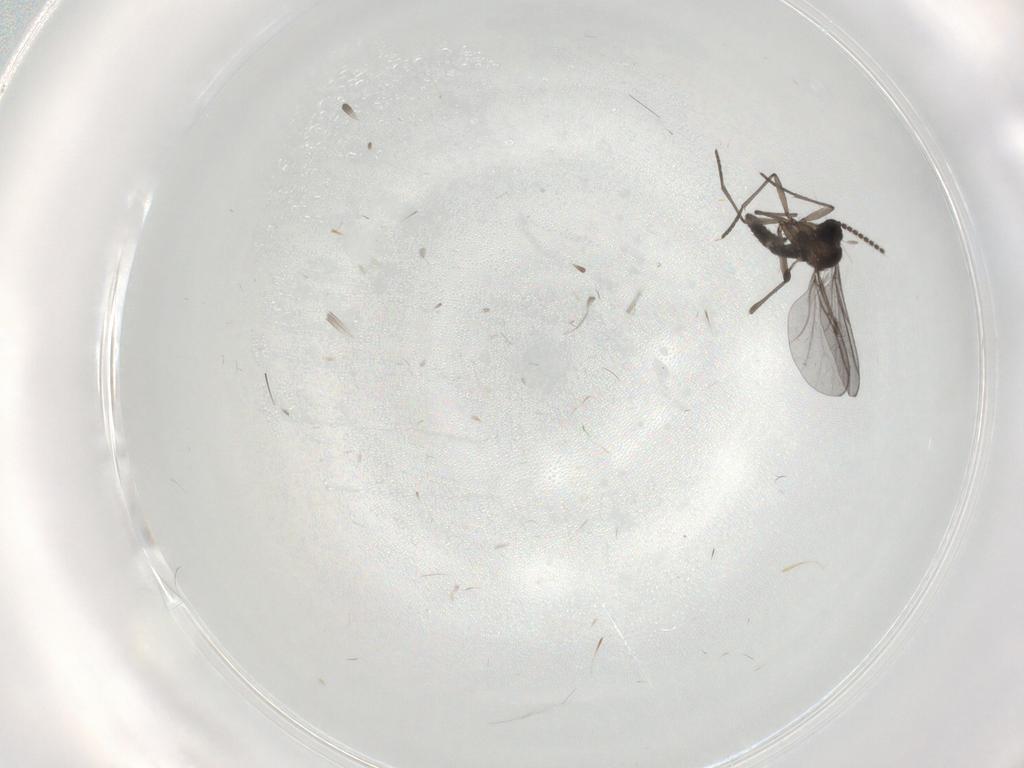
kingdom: Animalia
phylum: Arthropoda
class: Insecta
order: Diptera
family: Sciaridae
